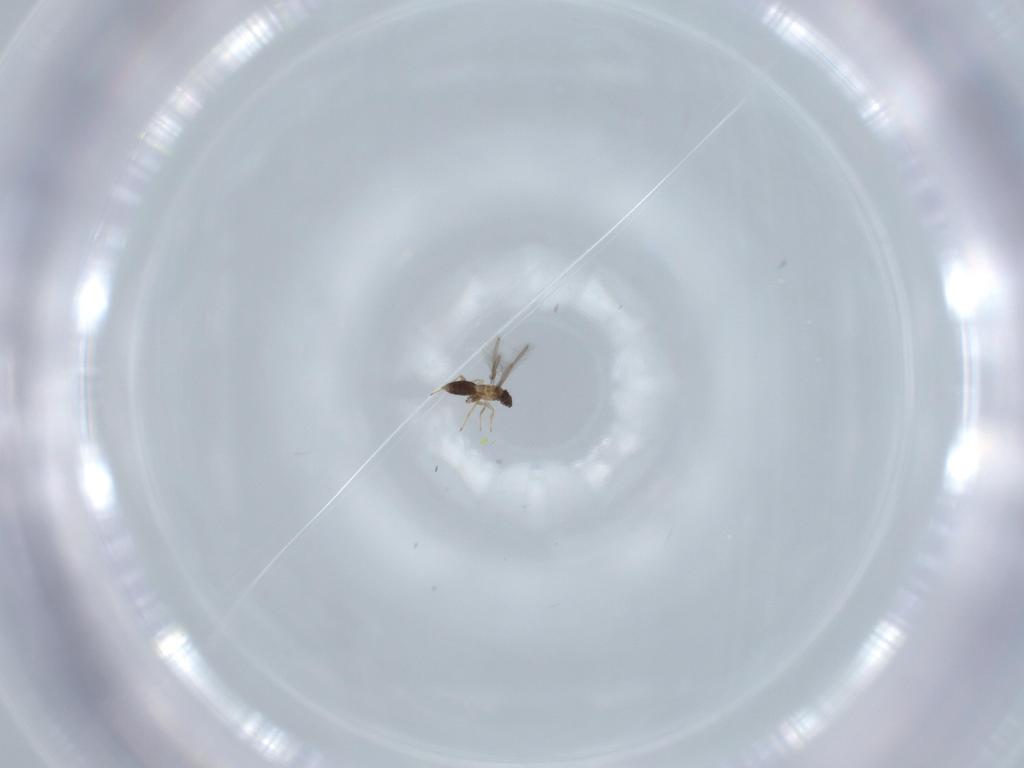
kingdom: Animalia
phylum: Arthropoda
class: Insecta
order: Hymenoptera
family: Mymaridae
